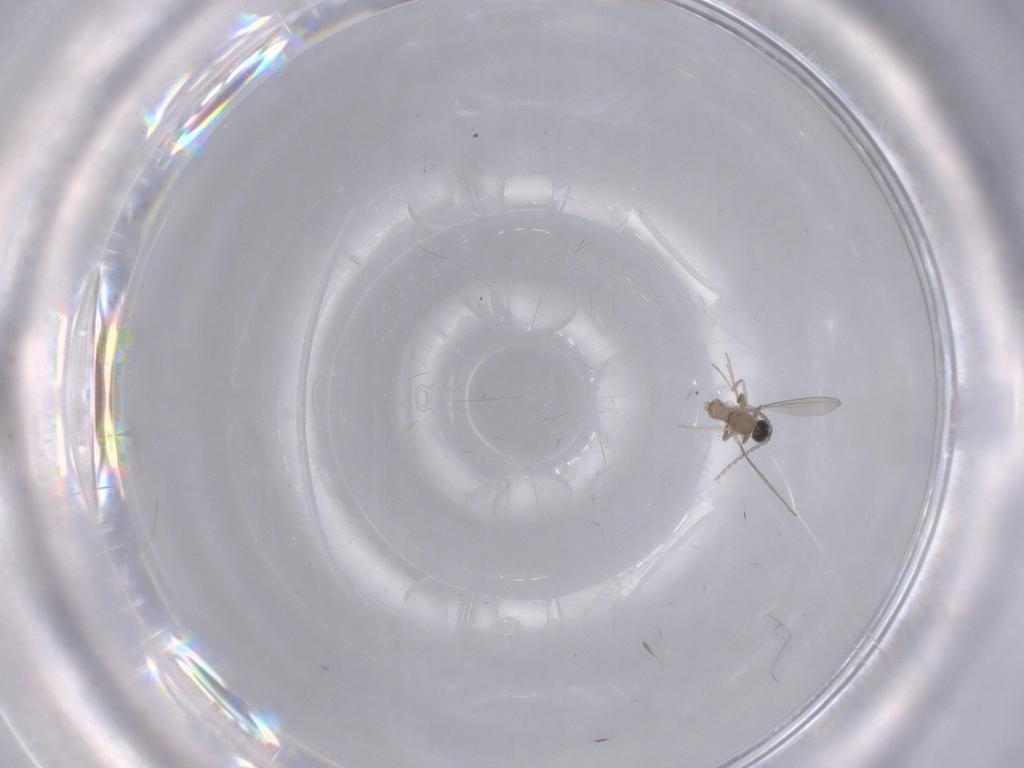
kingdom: Animalia
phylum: Arthropoda
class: Insecta
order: Diptera
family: Cecidomyiidae
